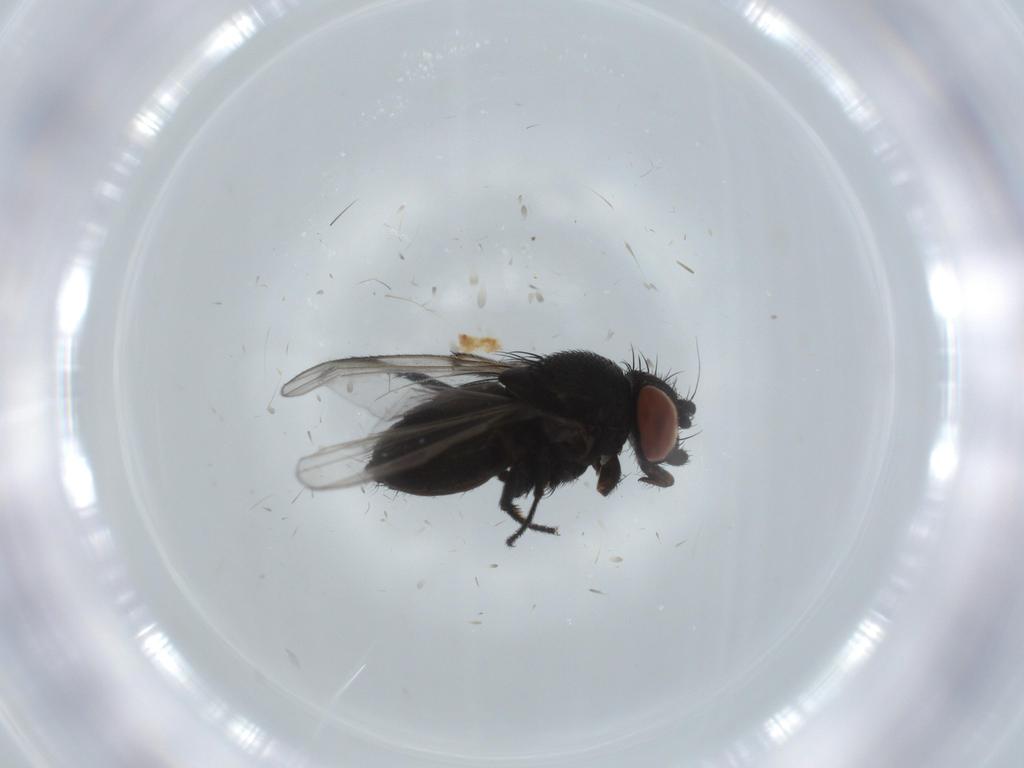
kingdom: Animalia
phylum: Arthropoda
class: Insecta
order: Diptera
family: Milichiidae
